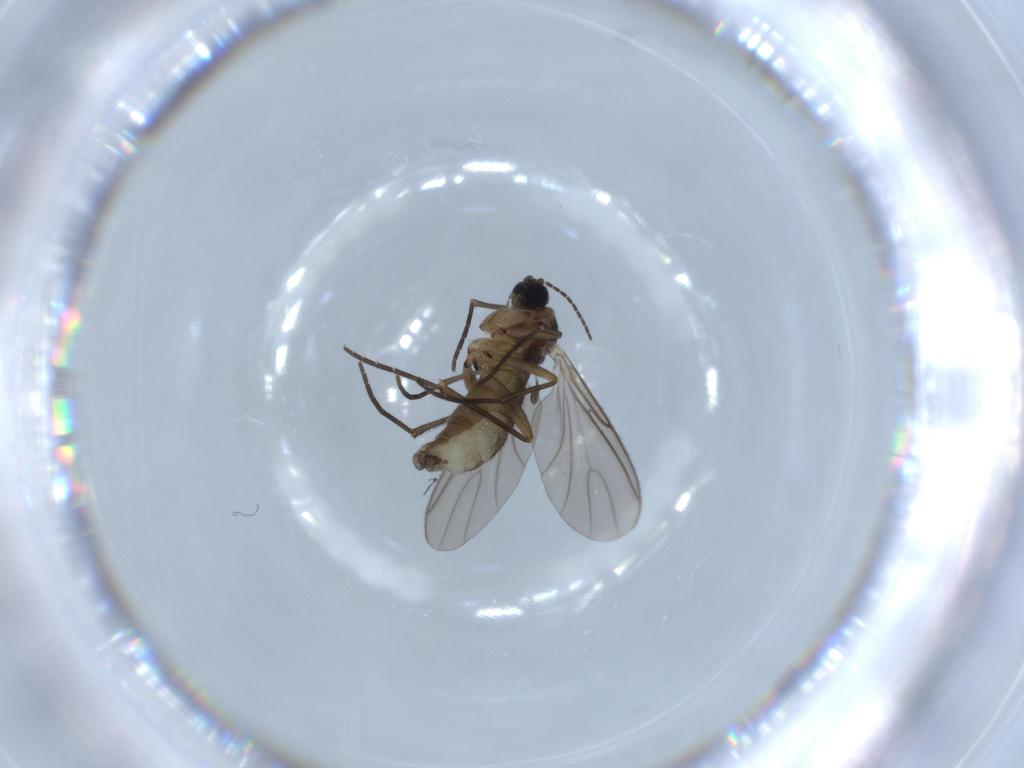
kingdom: Animalia
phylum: Arthropoda
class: Insecta
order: Diptera
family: Sciaridae
